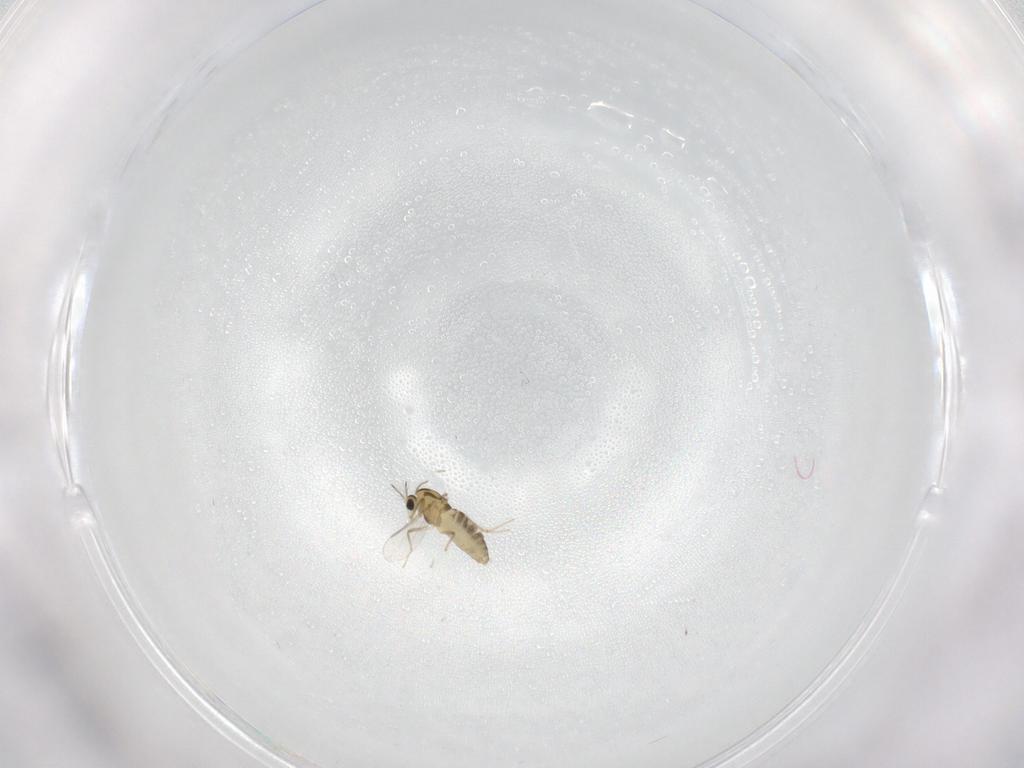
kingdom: Animalia
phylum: Arthropoda
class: Insecta
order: Diptera
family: Chironomidae
